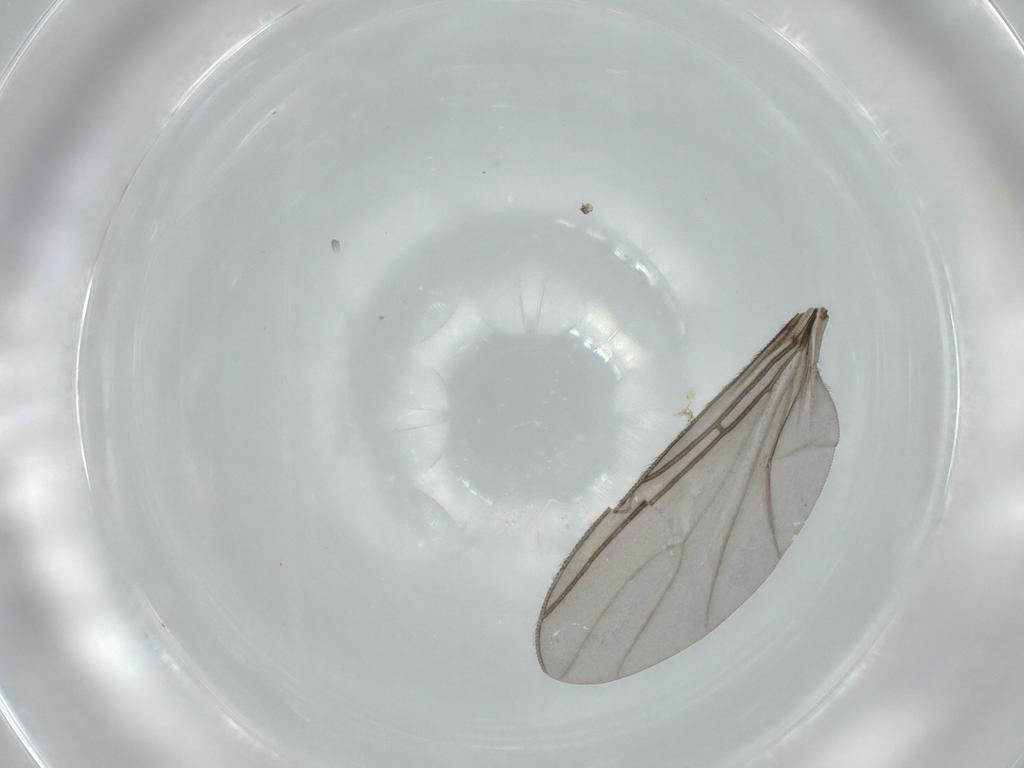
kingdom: Animalia
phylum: Arthropoda
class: Insecta
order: Diptera
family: Sciaridae
